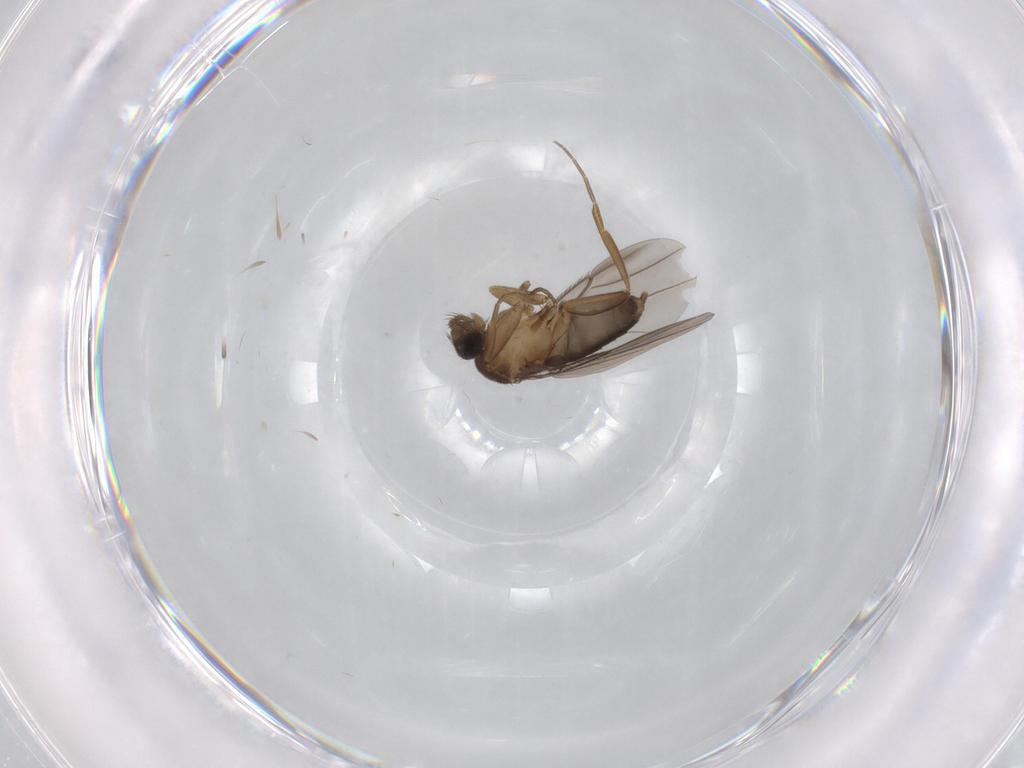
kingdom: Animalia
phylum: Arthropoda
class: Insecta
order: Diptera
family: Phoridae
